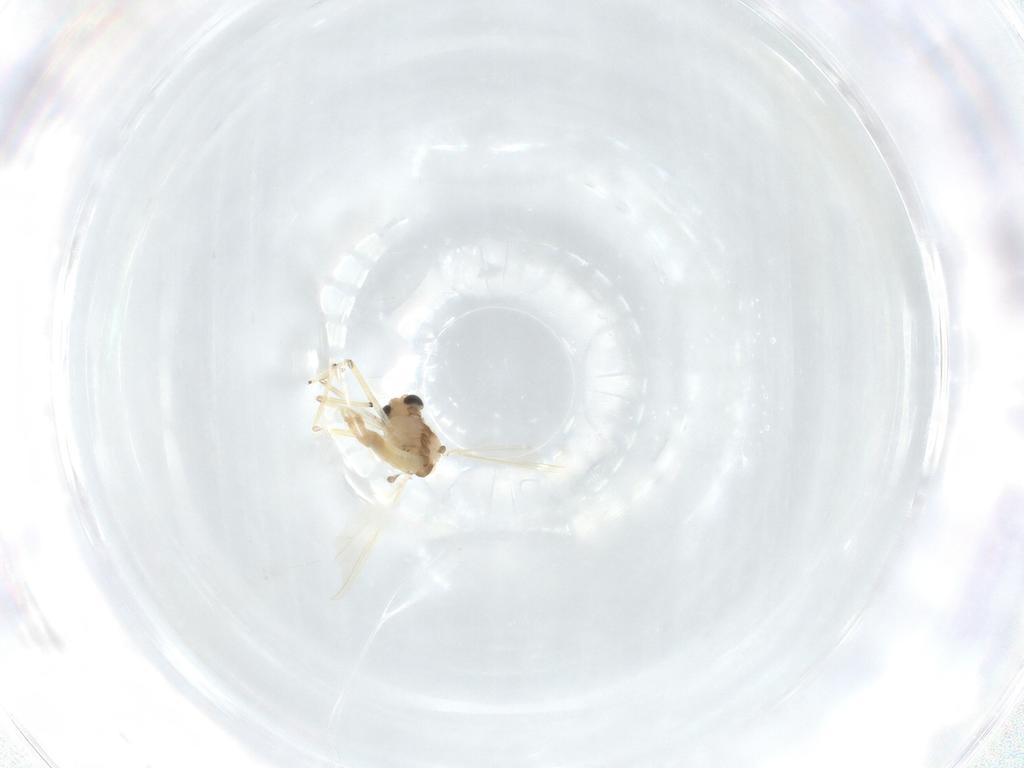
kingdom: Animalia
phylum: Arthropoda
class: Insecta
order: Diptera
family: Chironomidae
